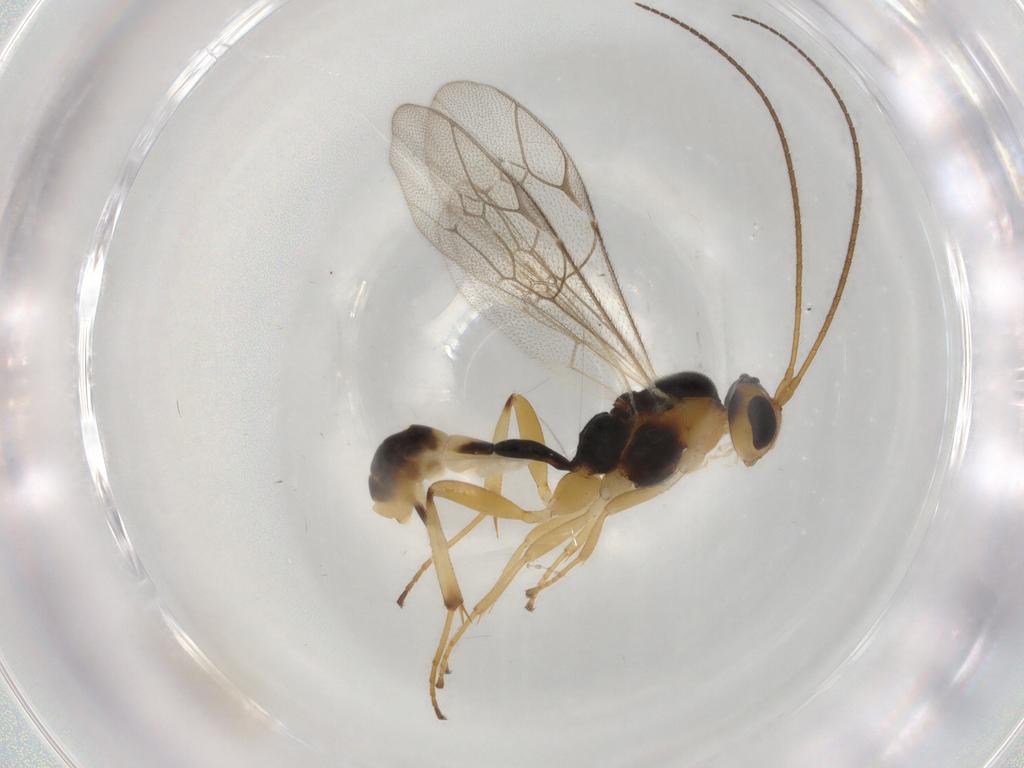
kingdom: Animalia
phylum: Arthropoda
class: Insecta
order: Hymenoptera
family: Ichneumonidae
